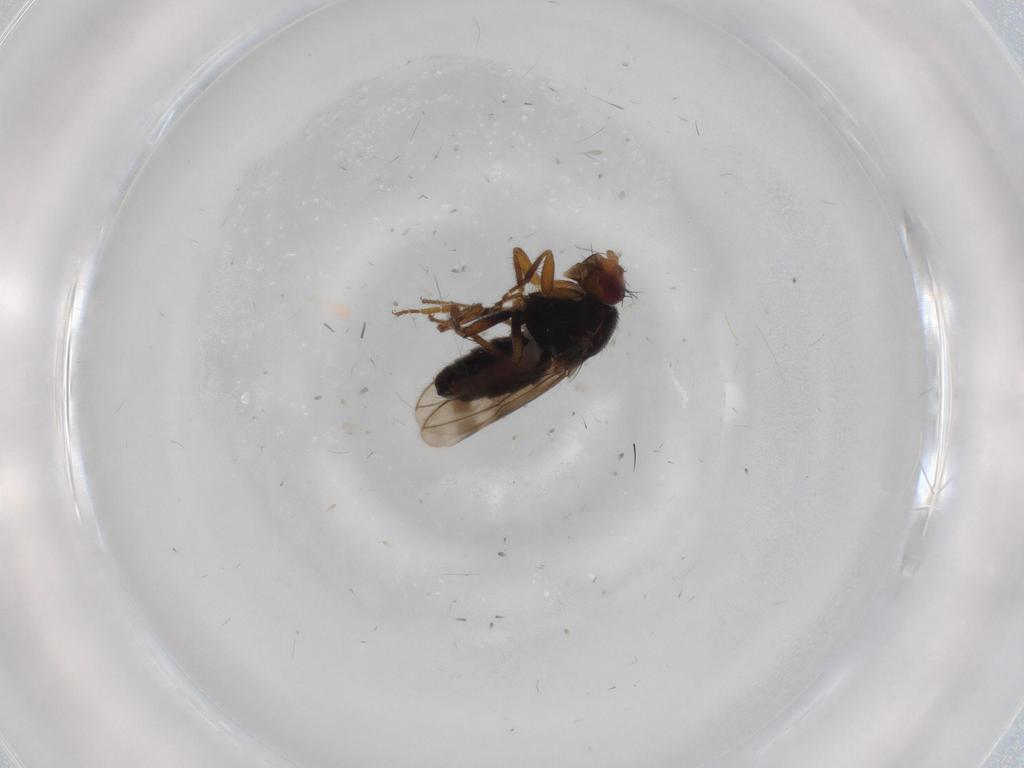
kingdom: Animalia
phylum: Arthropoda
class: Insecta
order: Diptera
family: Sphaeroceridae
